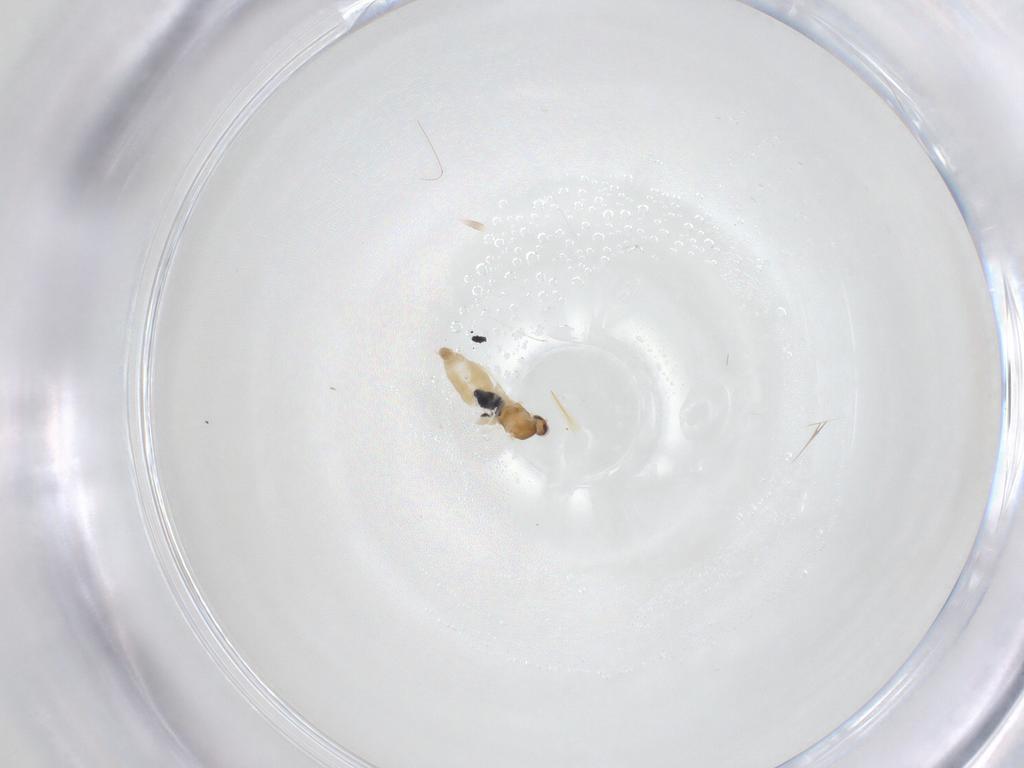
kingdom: Animalia
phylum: Arthropoda
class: Insecta
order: Diptera
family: Cecidomyiidae
